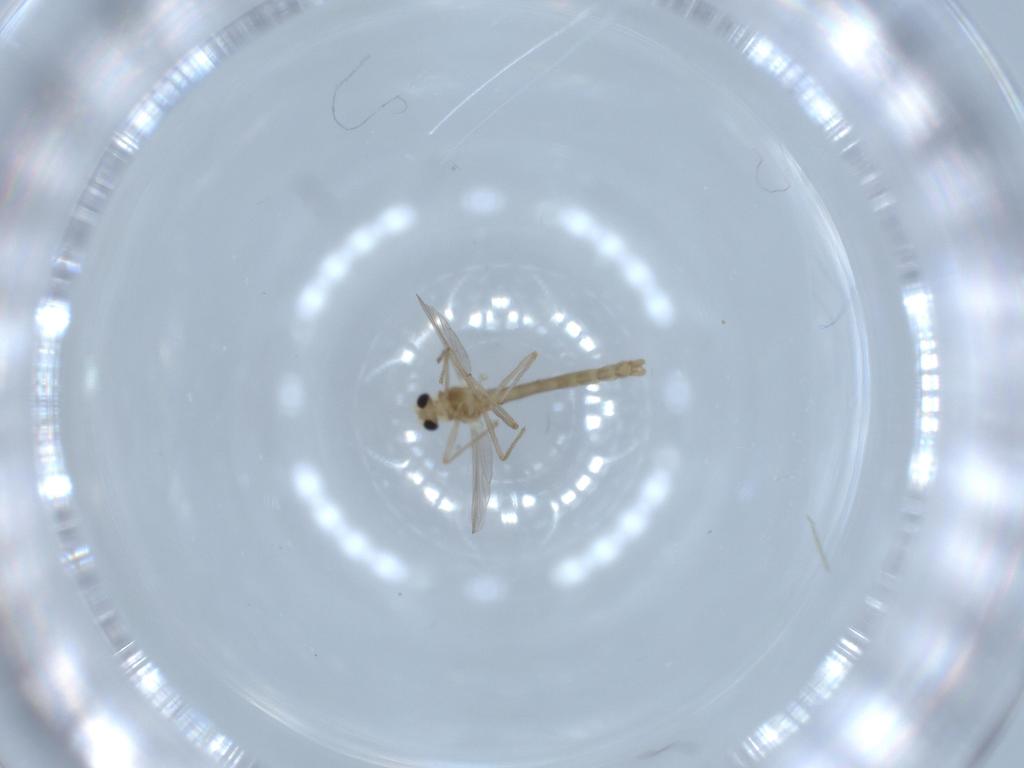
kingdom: Animalia
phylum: Arthropoda
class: Insecta
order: Diptera
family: Chironomidae
